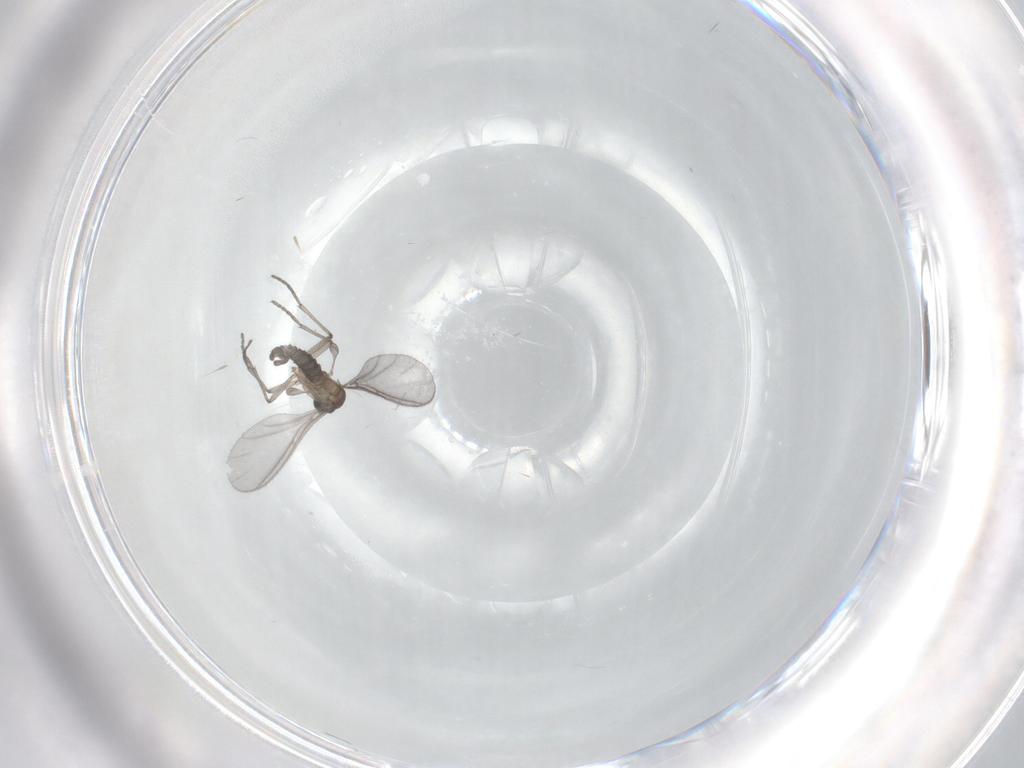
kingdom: Animalia
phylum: Arthropoda
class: Insecta
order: Diptera
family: Sciaridae
